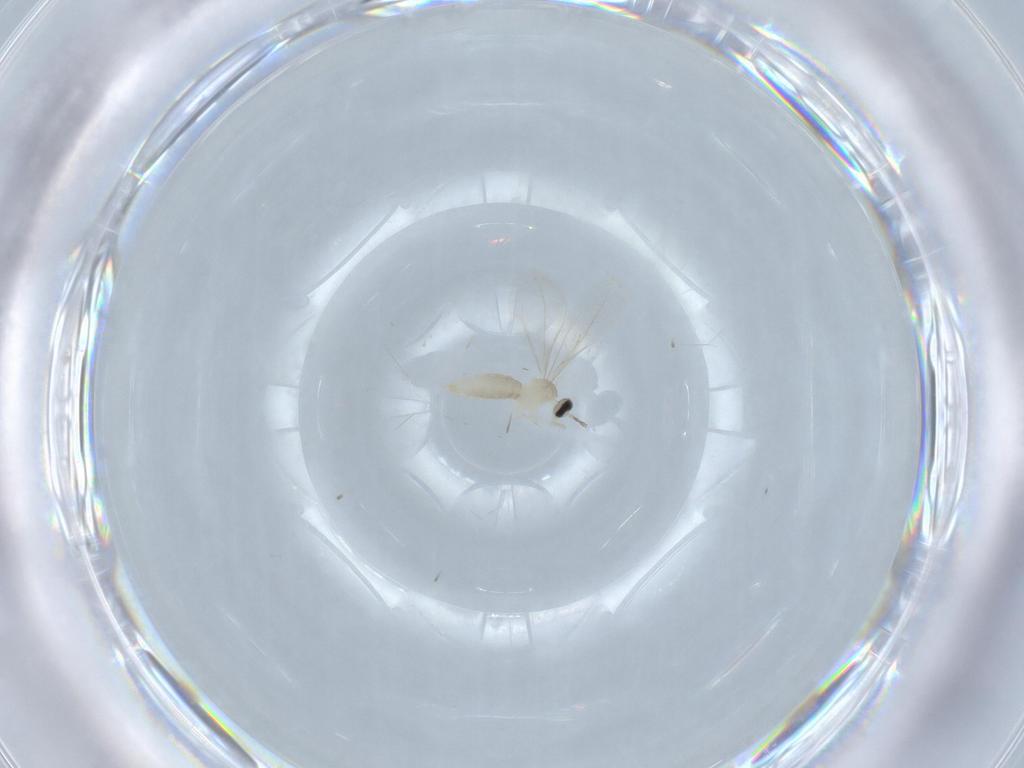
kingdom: Animalia
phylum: Arthropoda
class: Insecta
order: Diptera
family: Cecidomyiidae
